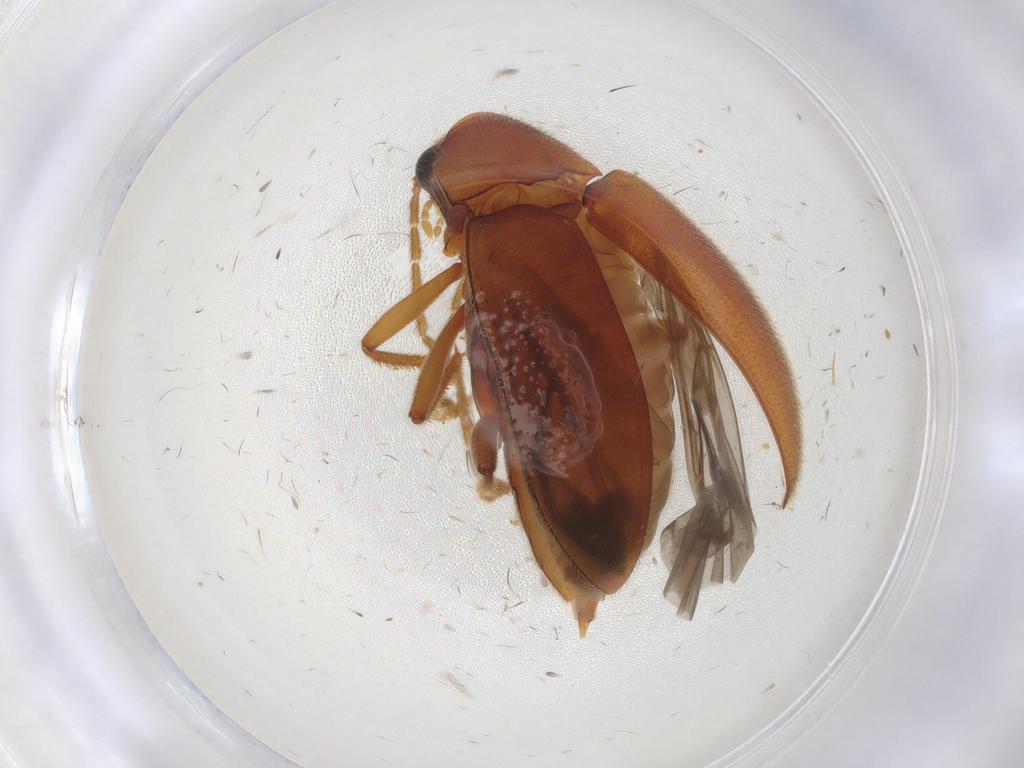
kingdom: Animalia
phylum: Arthropoda
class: Insecta
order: Coleoptera
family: Ptilodactylidae
